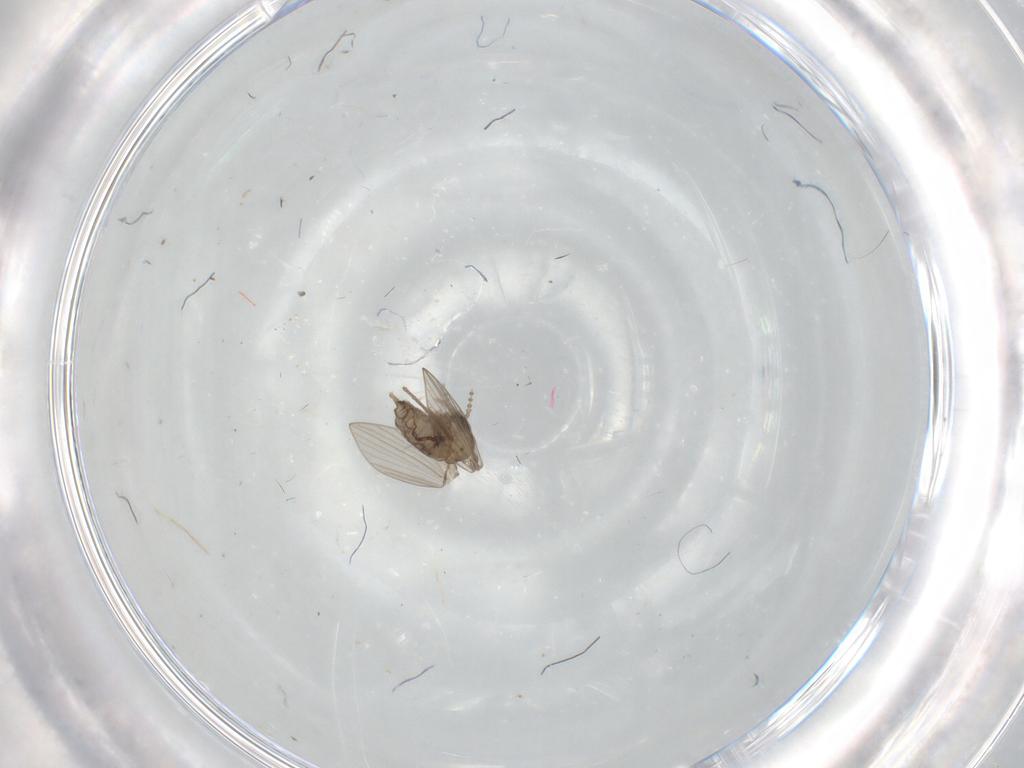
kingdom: Animalia
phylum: Arthropoda
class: Insecta
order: Diptera
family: Psychodidae
